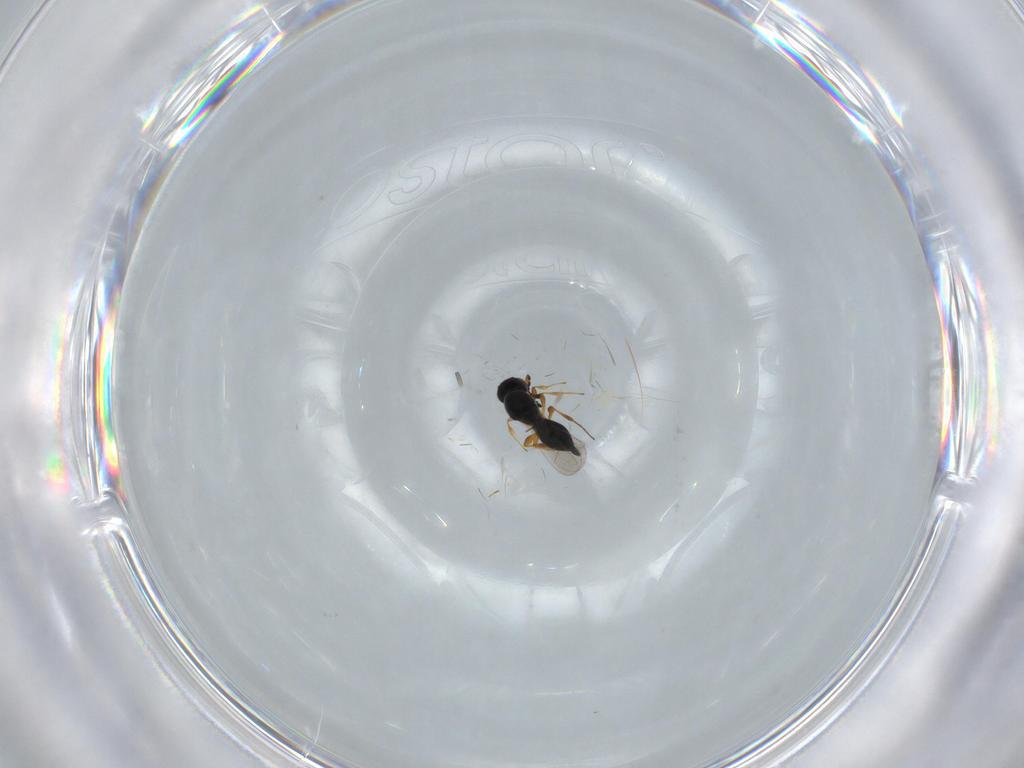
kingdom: Animalia
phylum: Arthropoda
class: Insecta
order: Hymenoptera
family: Platygastridae
